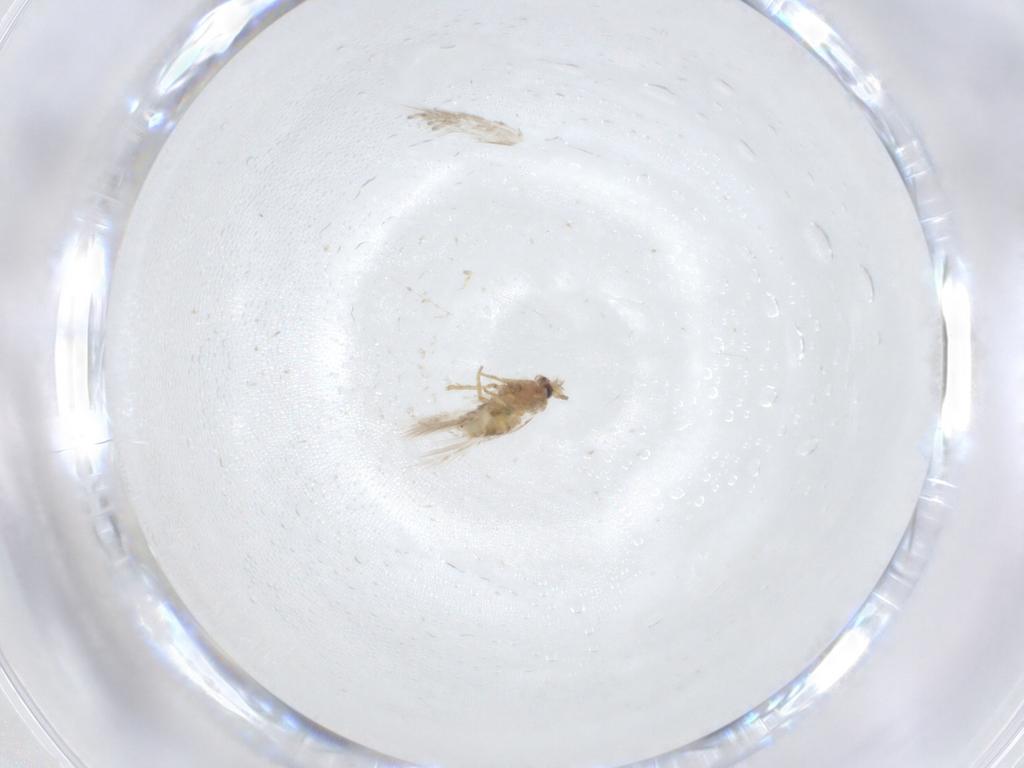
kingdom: Animalia
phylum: Arthropoda
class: Insecta
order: Lepidoptera
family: Nepticulidae
